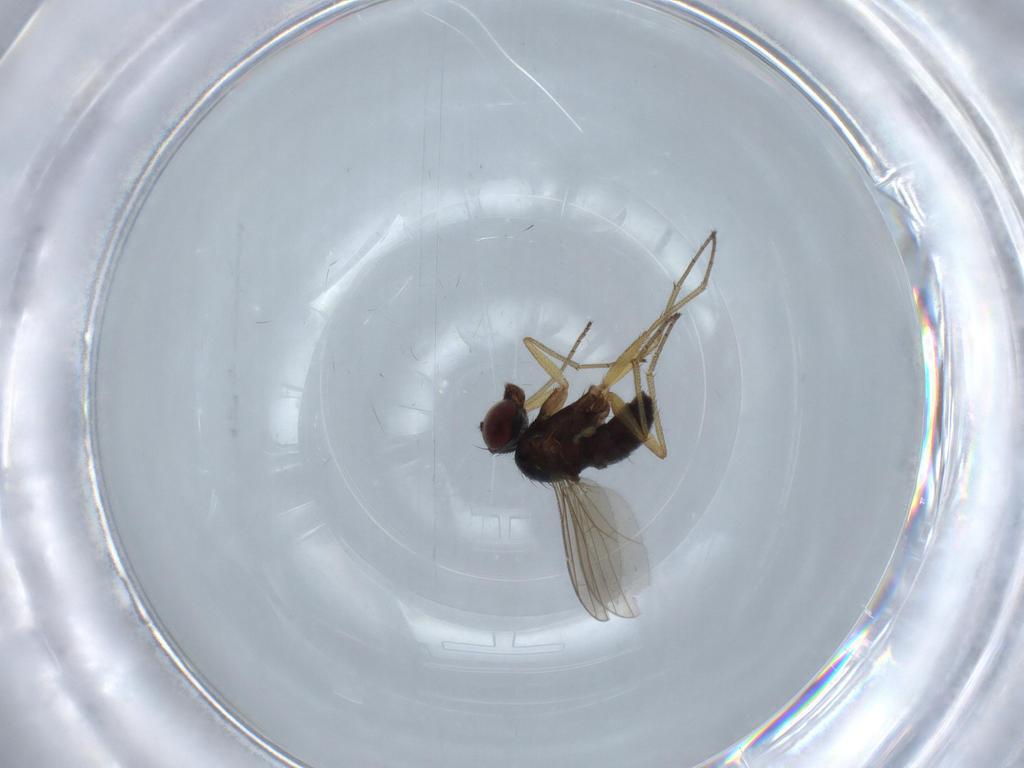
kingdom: Animalia
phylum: Arthropoda
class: Insecta
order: Diptera
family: Dolichopodidae
